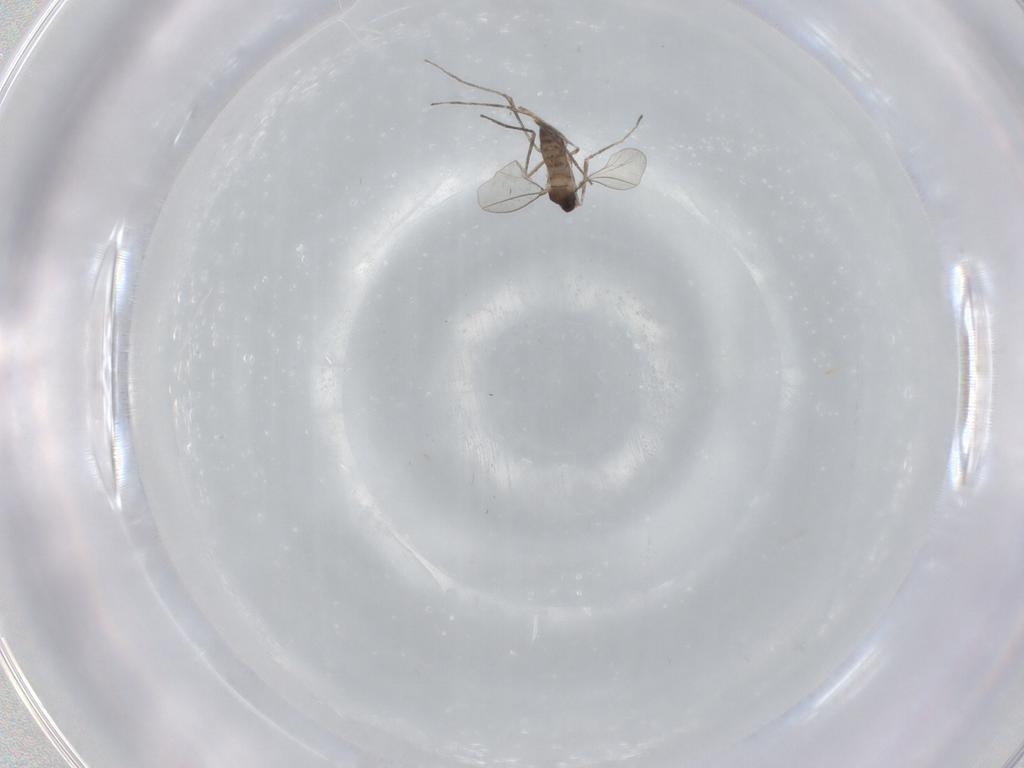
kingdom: Animalia
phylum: Arthropoda
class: Insecta
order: Diptera
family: Cecidomyiidae
